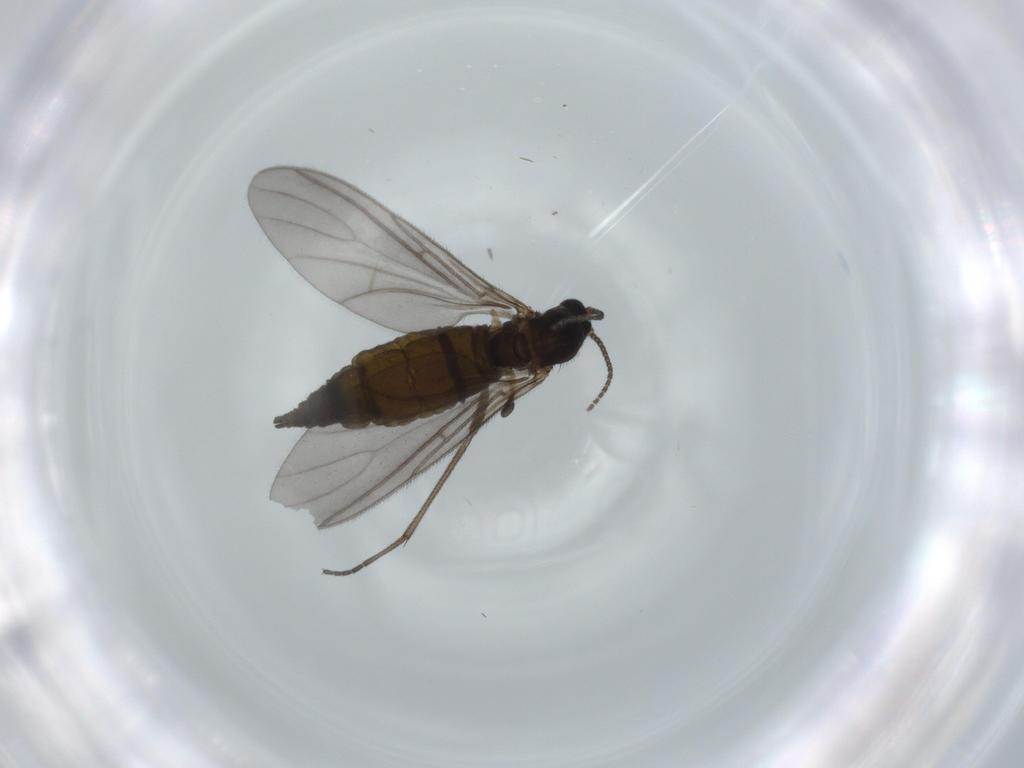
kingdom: Animalia
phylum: Arthropoda
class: Insecta
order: Diptera
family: Sciaridae
